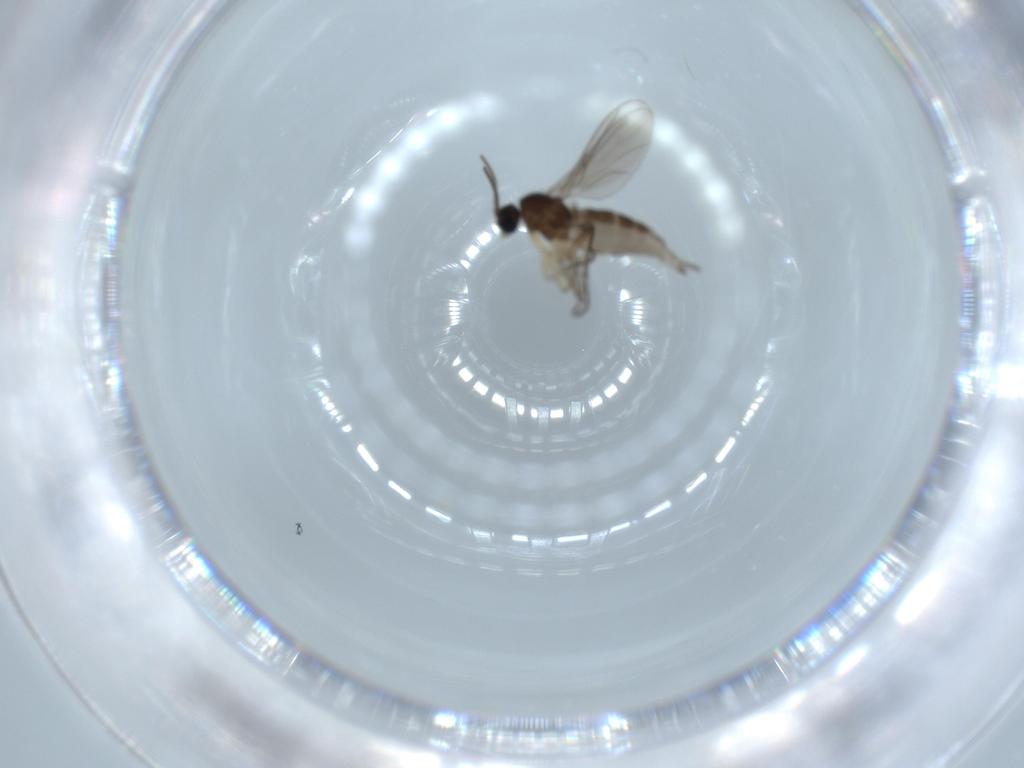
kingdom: Animalia
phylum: Arthropoda
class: Insecta
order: Diptera
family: Sciaridae
